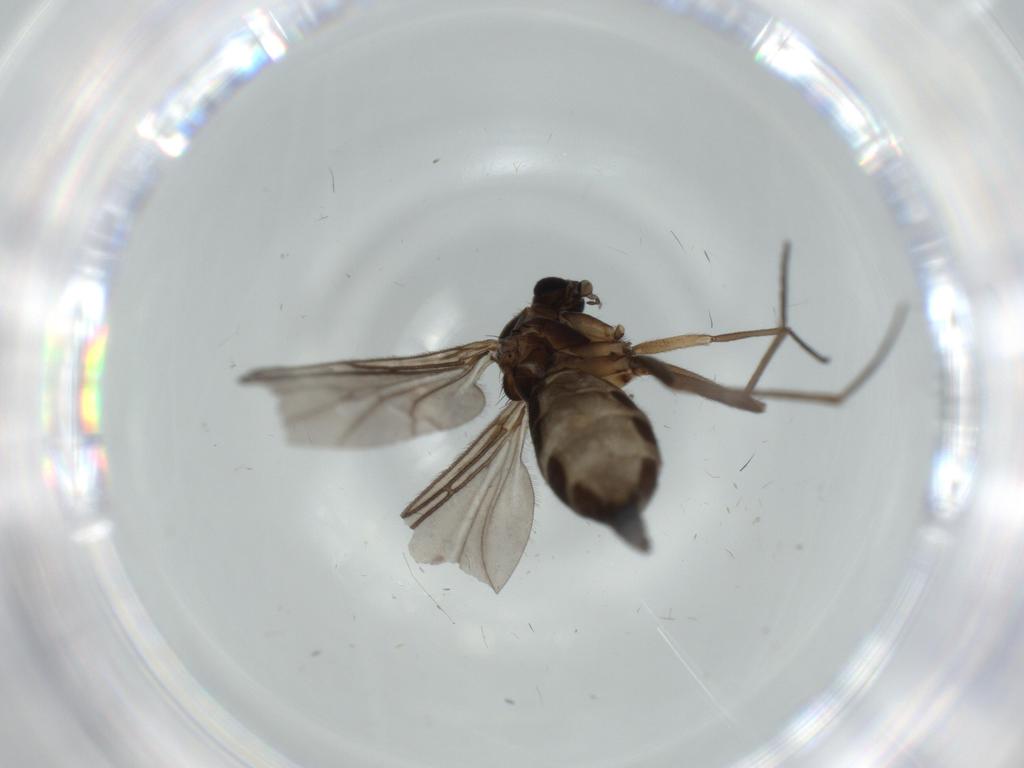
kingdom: Animalia
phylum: Arthropoda
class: Insecta
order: Diptera
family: Sciaridae
